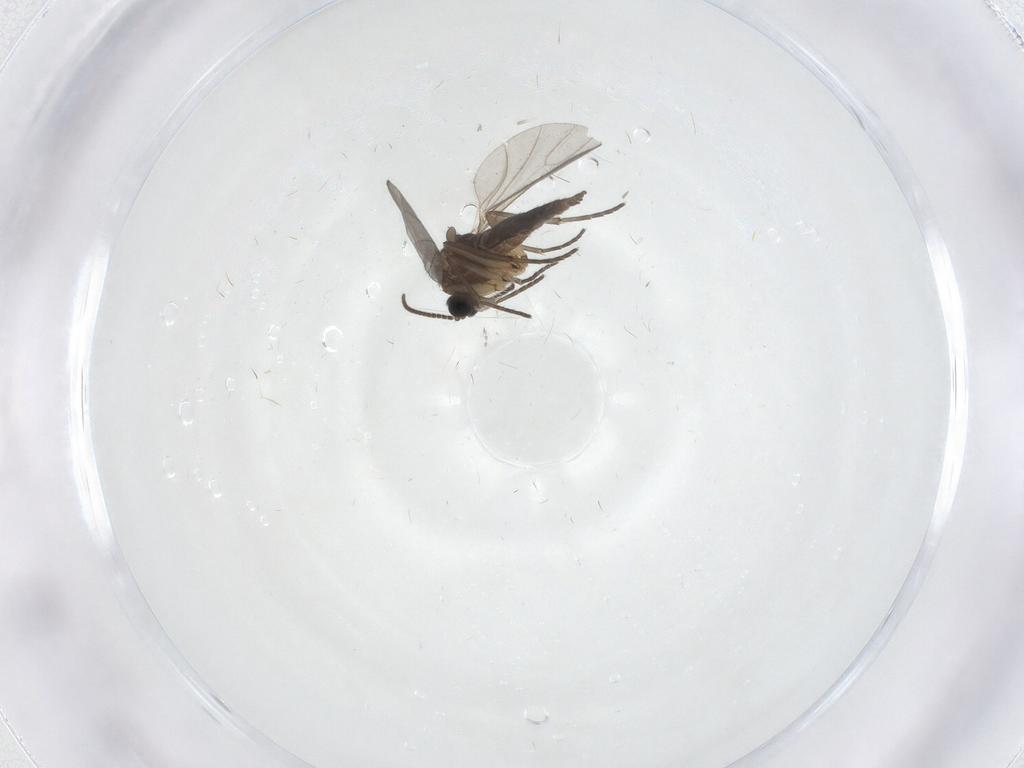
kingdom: Animalia
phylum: Arthropoda
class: Insecta
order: Diptera
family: Sciaridae
